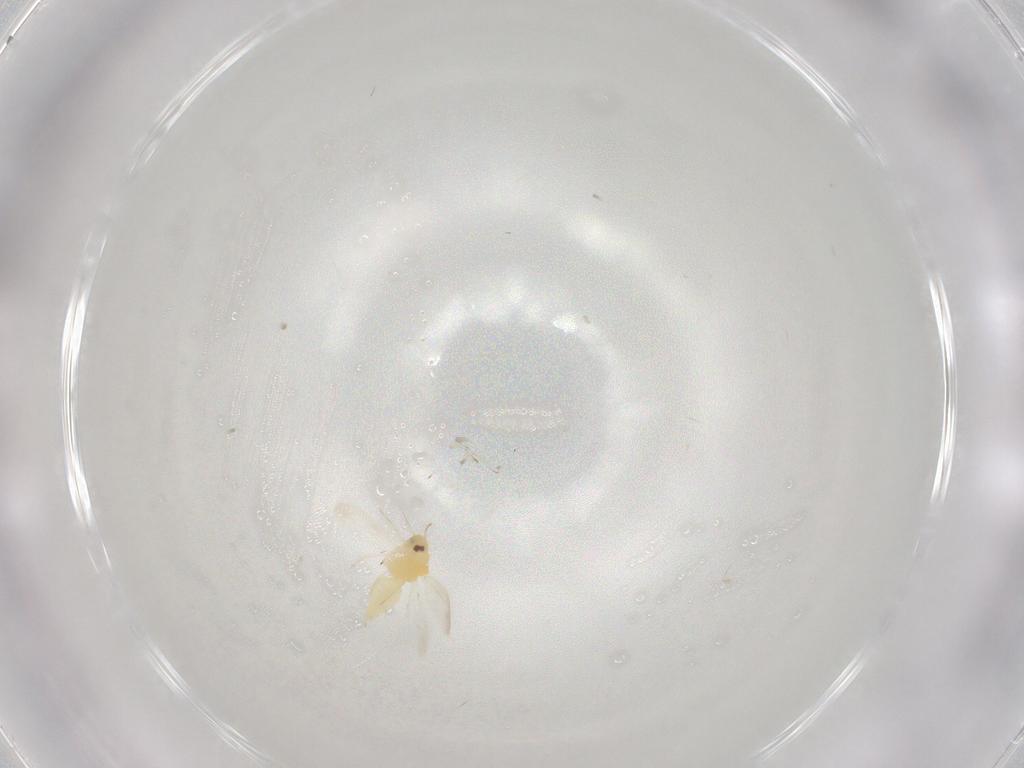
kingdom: Animalia
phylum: Arthropoda
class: Insecta
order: Hemiptera
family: Aleyrodidae
